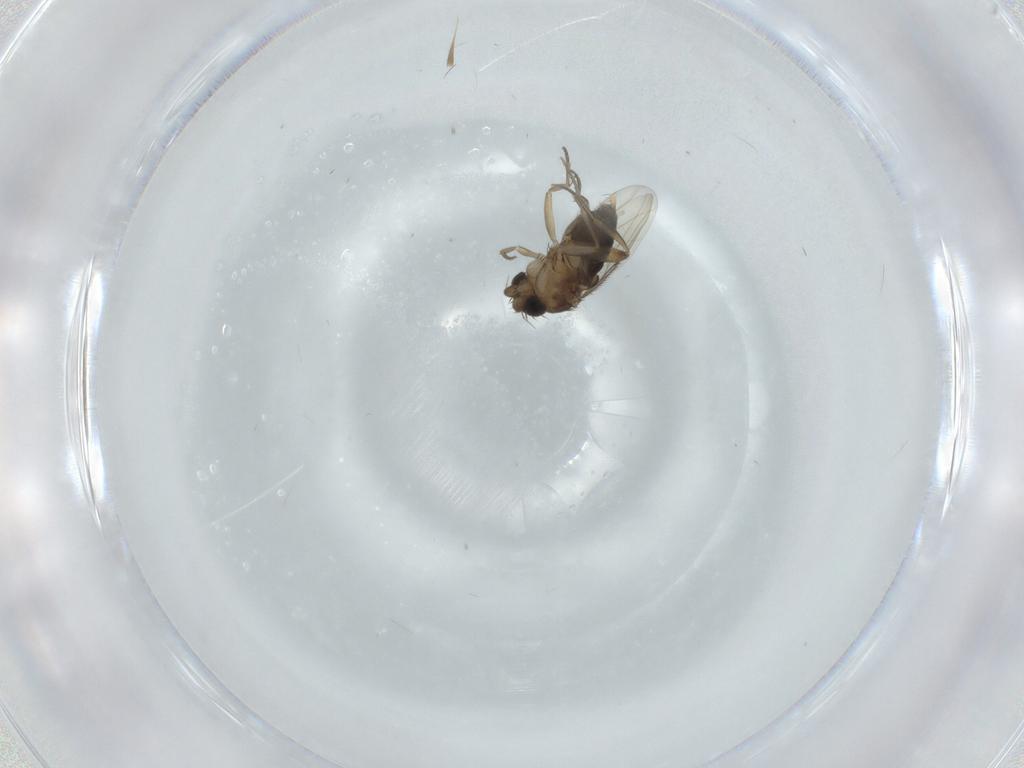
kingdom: Animalia
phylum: Arthropoda
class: Insecta
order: Diptera
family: Phoridae
